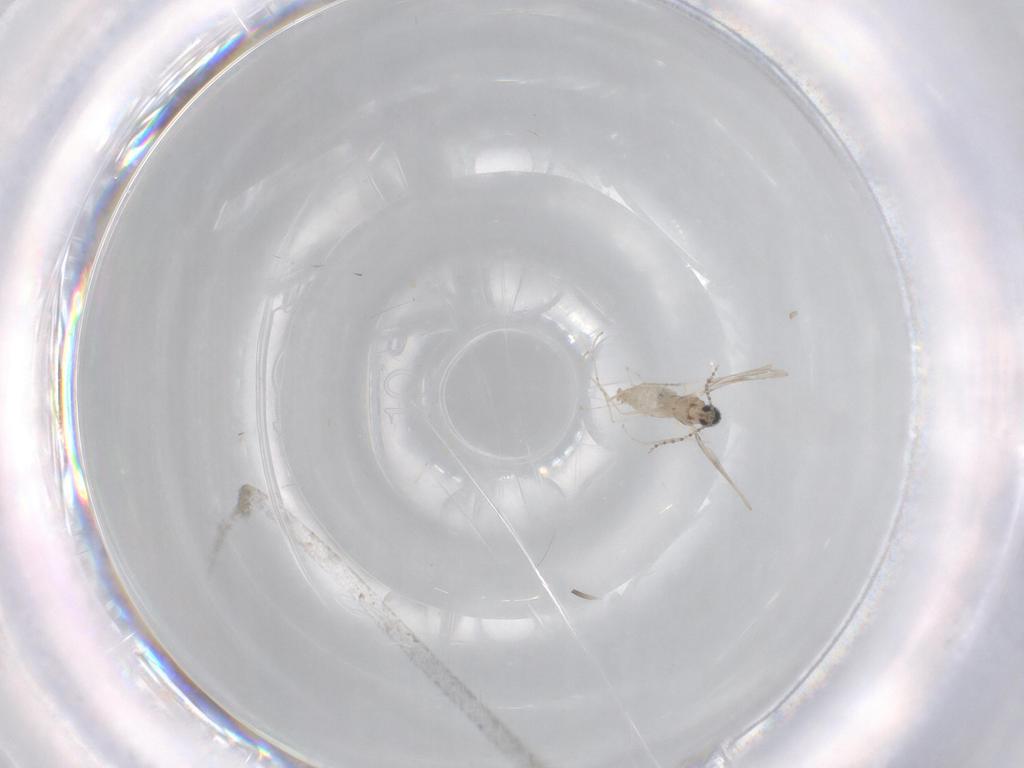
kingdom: Animalia
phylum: Arthropoda
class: Insecta
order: Diptera
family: Cecidomyiidae
